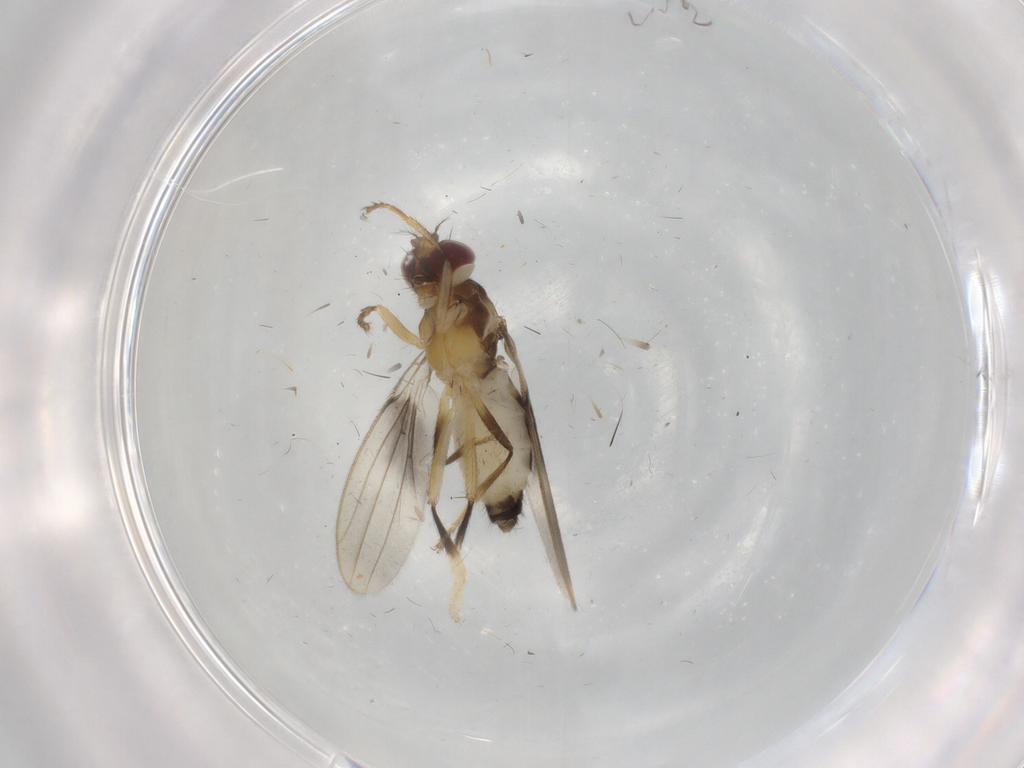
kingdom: Animalia
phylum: Arthropoda
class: Insecta
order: Diptera
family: Periscelididae
